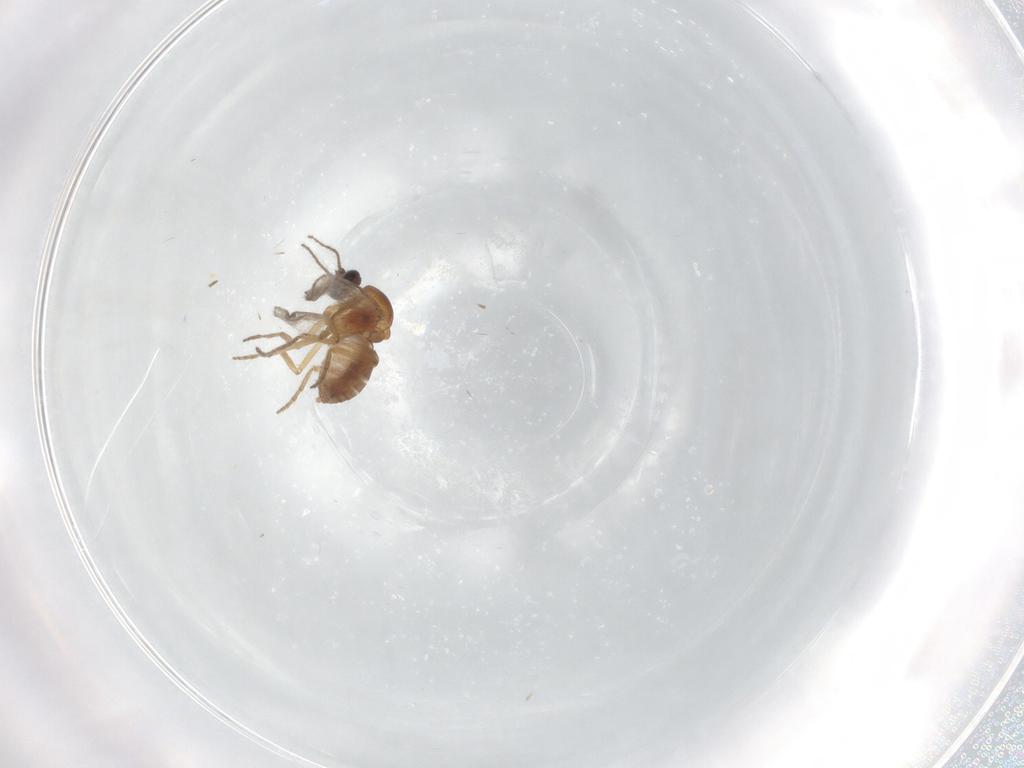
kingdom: Animalia
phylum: Arthropoda
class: Insecta
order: Diptera
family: Chironomidae
